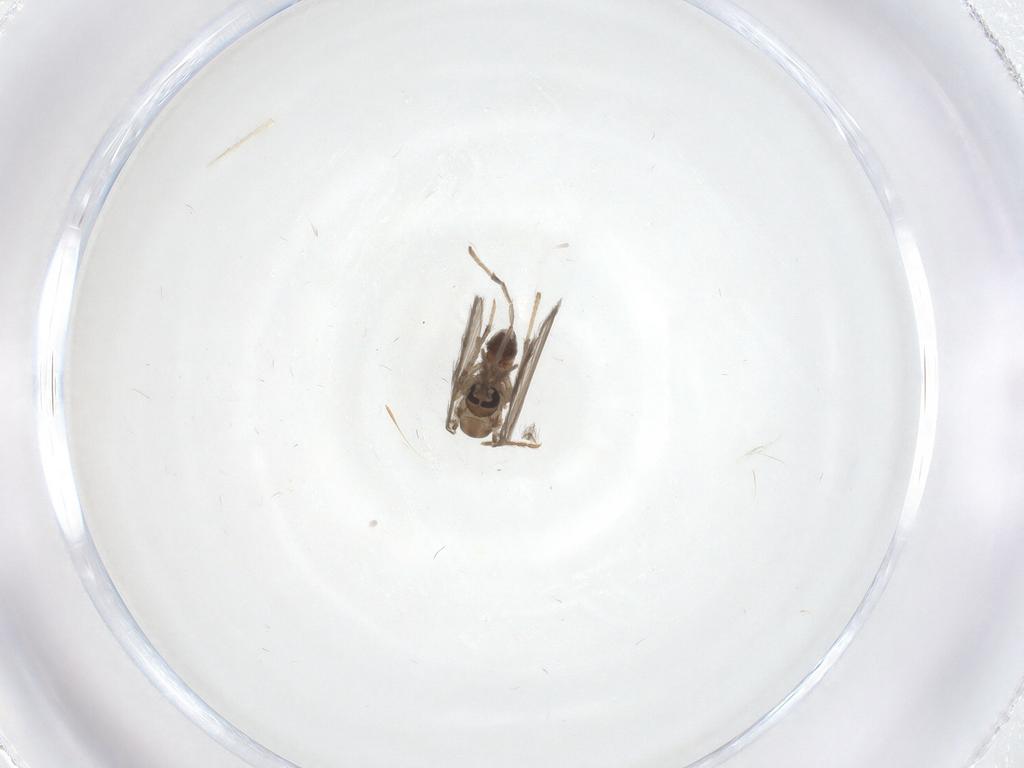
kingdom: Animalia
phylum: Arthropoda
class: Insecta
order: Diptera
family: Psychodidae
